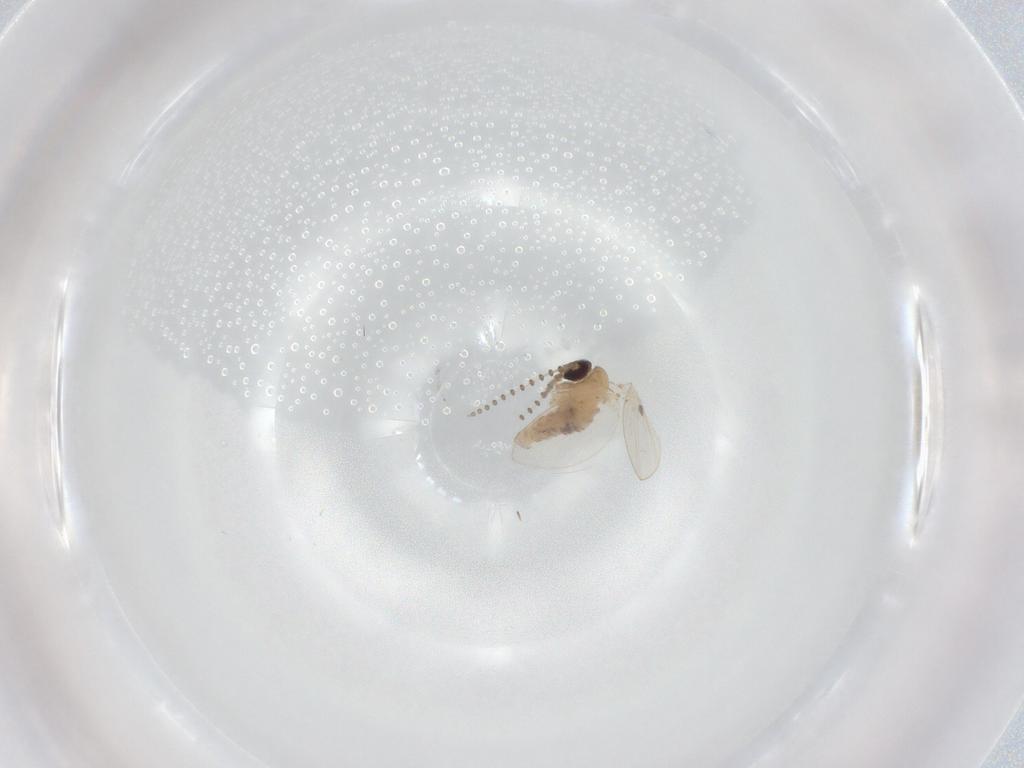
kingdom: Animalia
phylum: Arthropoda
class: Insecta
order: Diptera
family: Psychodidae
